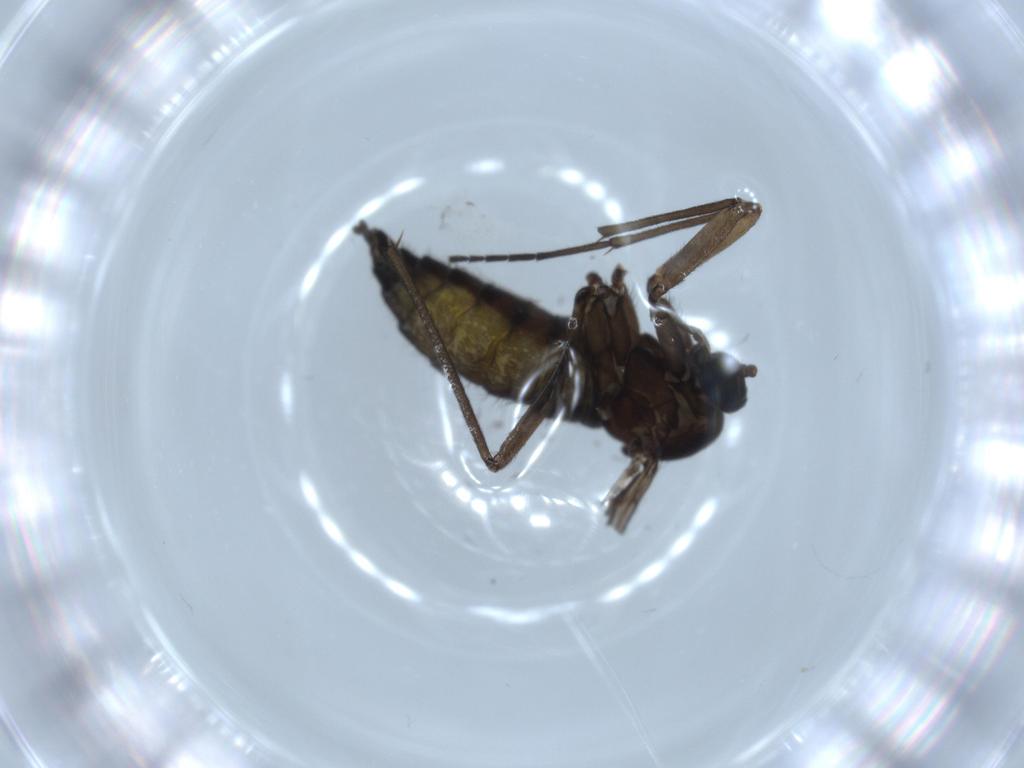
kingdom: Animalia
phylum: Arthropoda
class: Insecta
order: Diptera
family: Sciaridae
